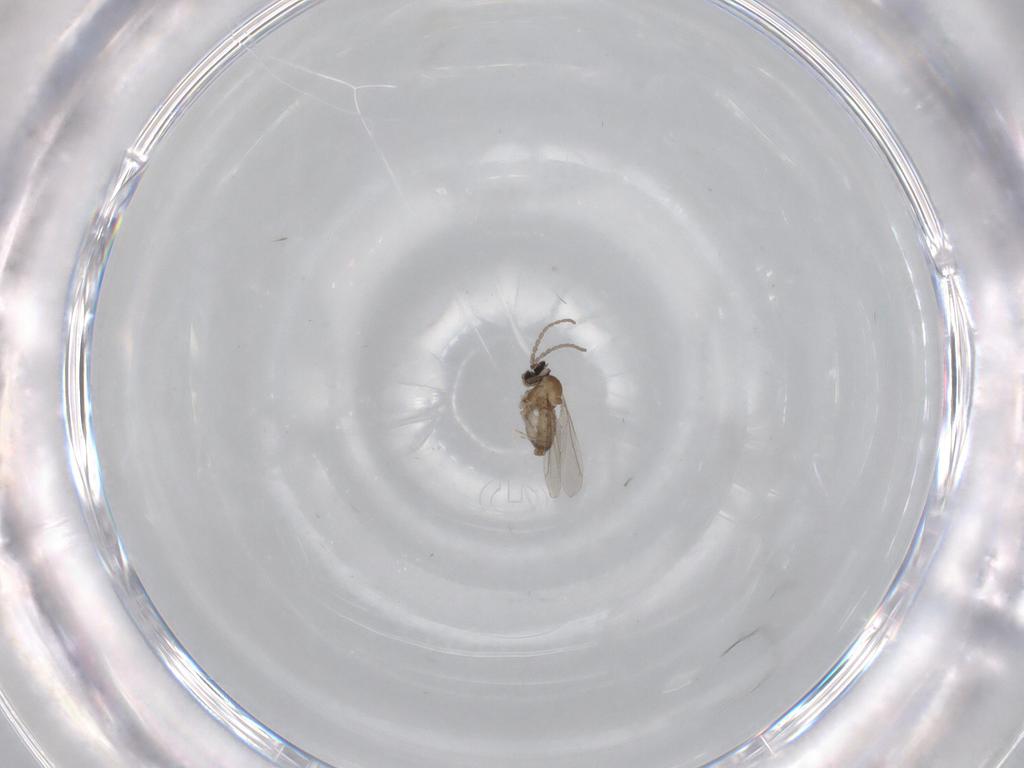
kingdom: Animalia
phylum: Arthropoda
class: Insecta
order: Diptera
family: Cecidomyiidae
